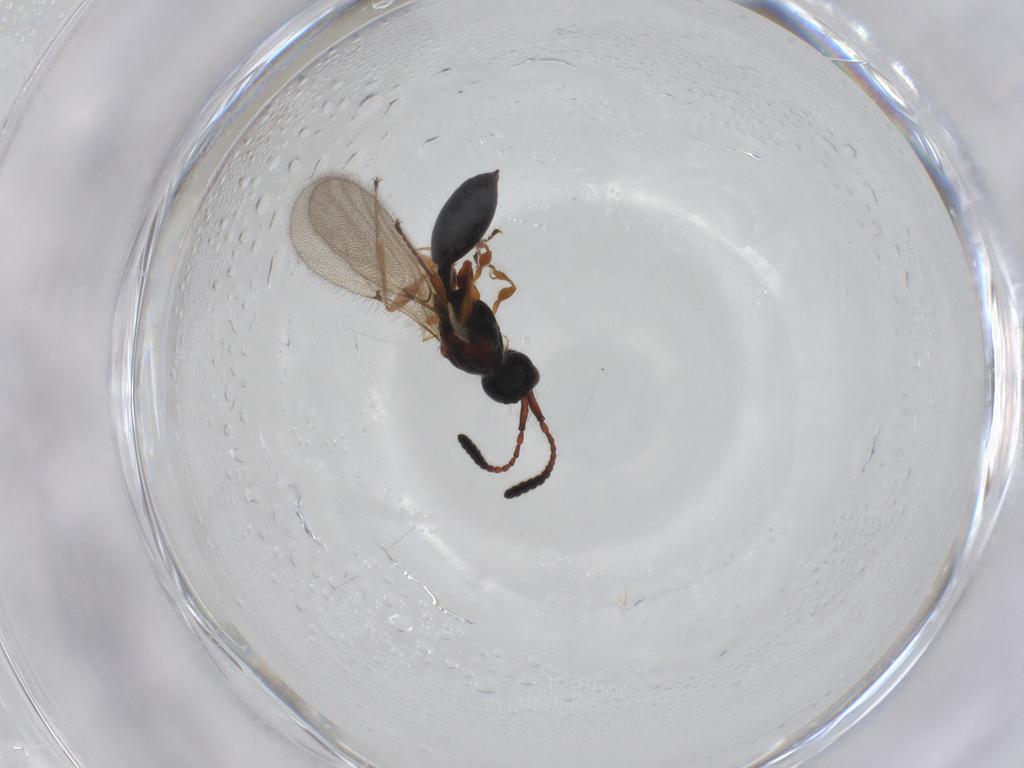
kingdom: Animalia
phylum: Arthropoda
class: Insecta
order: Hymenoptera
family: Diapriidae
